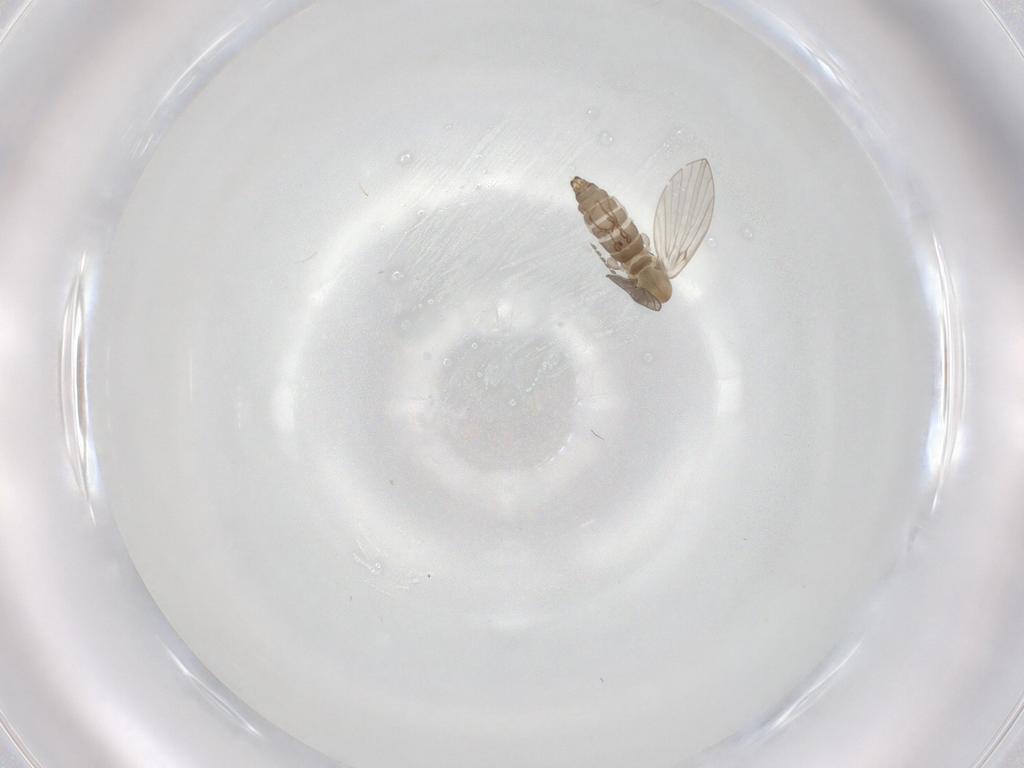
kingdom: Animalia
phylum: Arthropoda
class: Insecta
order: Diptera
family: Psychodidae
